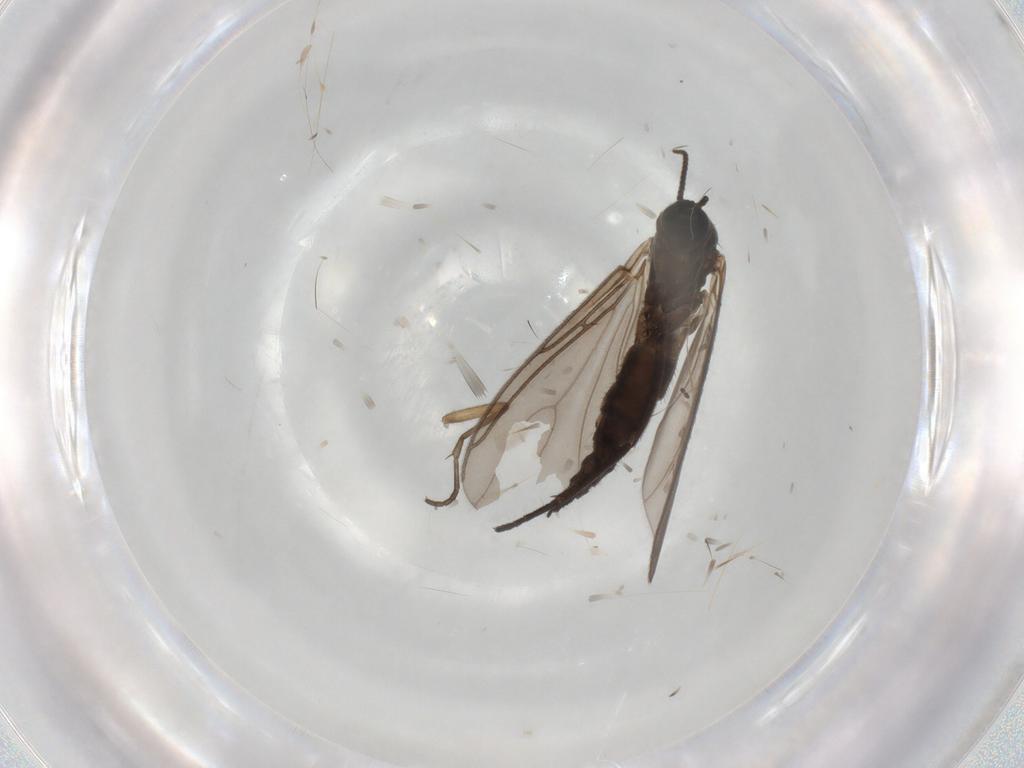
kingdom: Animalia
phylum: Arthropoda
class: Insecta
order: Diptera
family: Sciaridae
